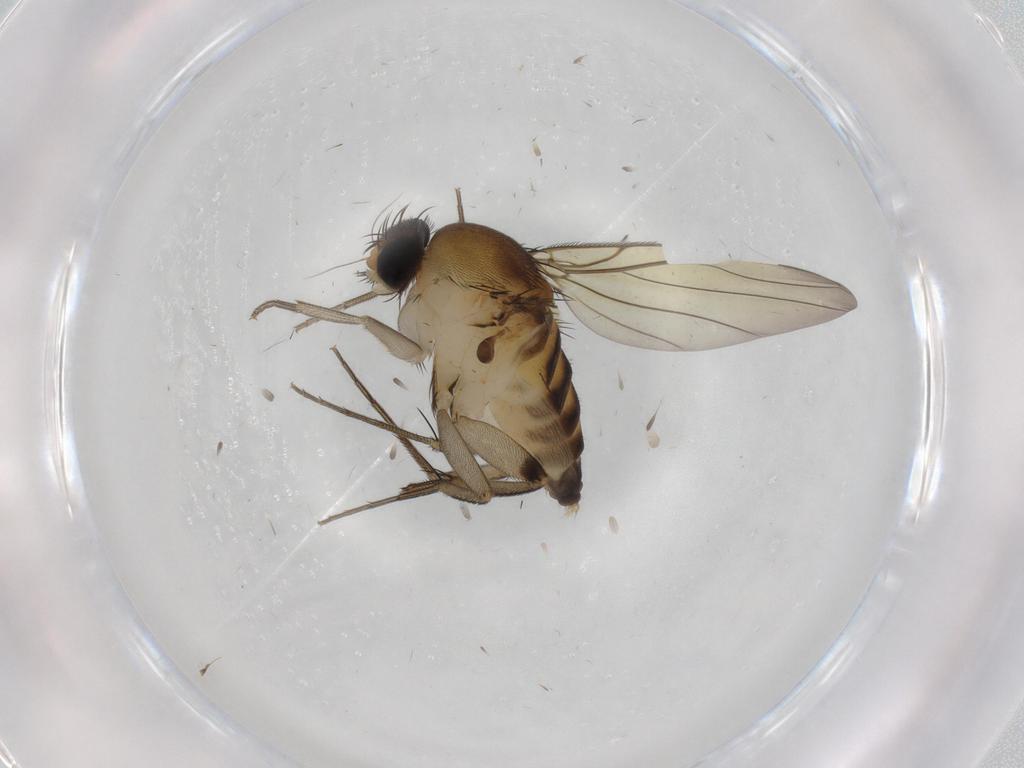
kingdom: Animalia
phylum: Arthropoda
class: Insecta
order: Diptera
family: Phoridae
